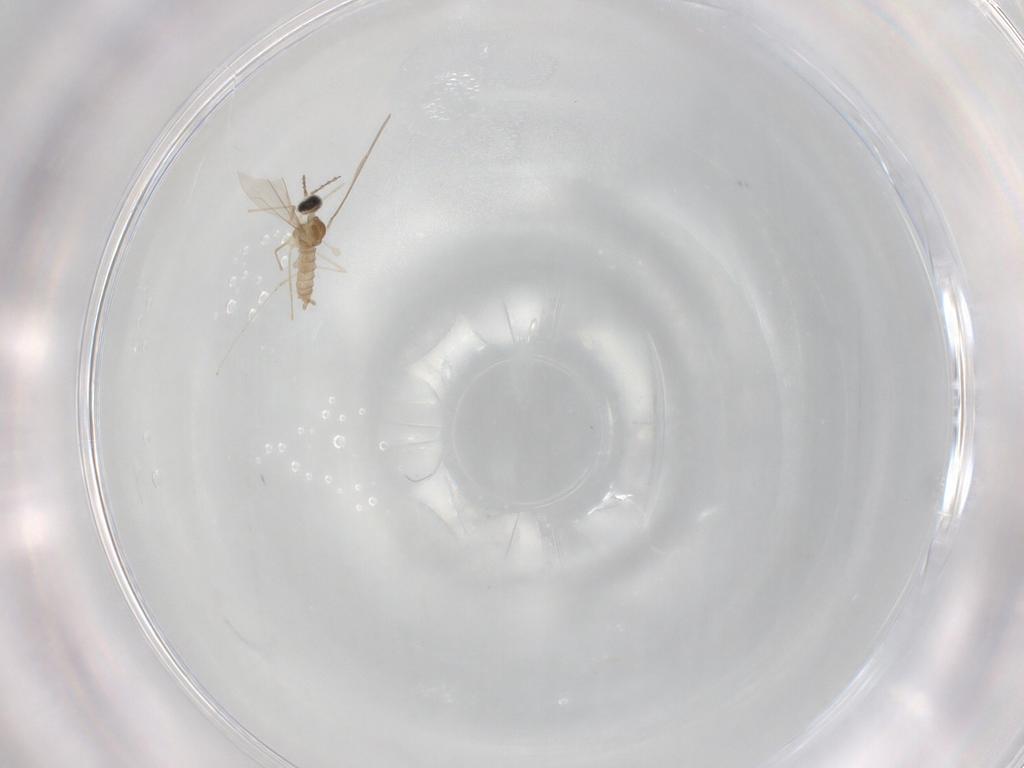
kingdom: Animalia
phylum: Arthropoda
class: Insecta
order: Diptera
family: Cecidomyiidae
